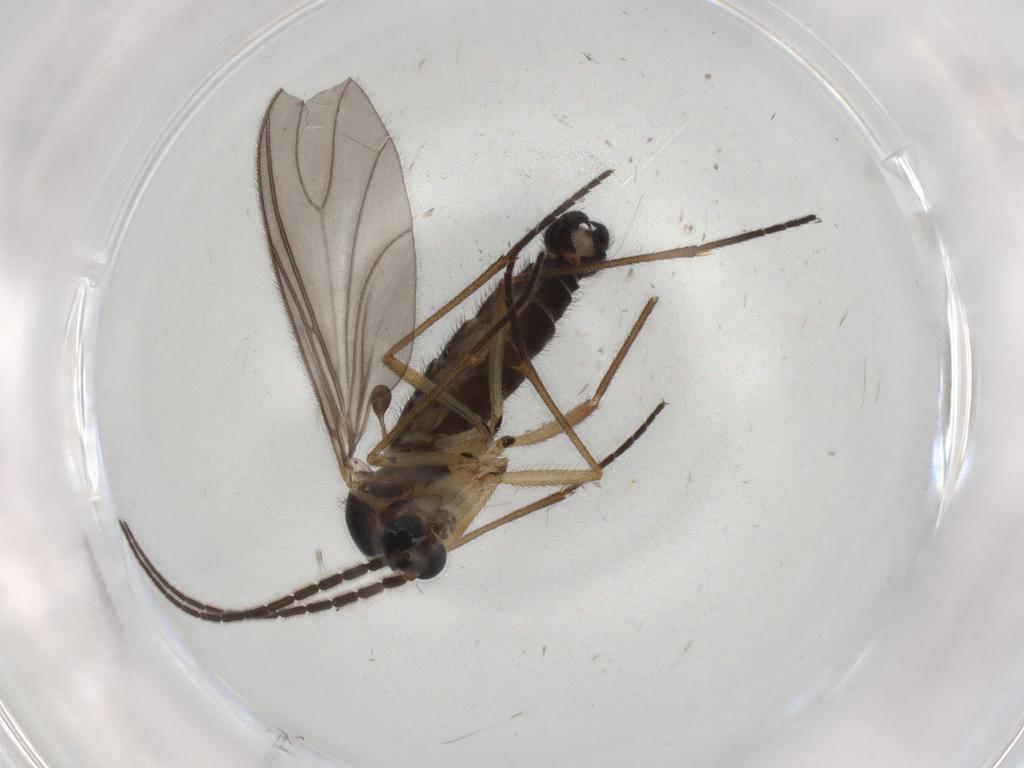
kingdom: Animalia
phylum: Arthropoda
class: Insecta
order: Diptera
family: Sciaridae
